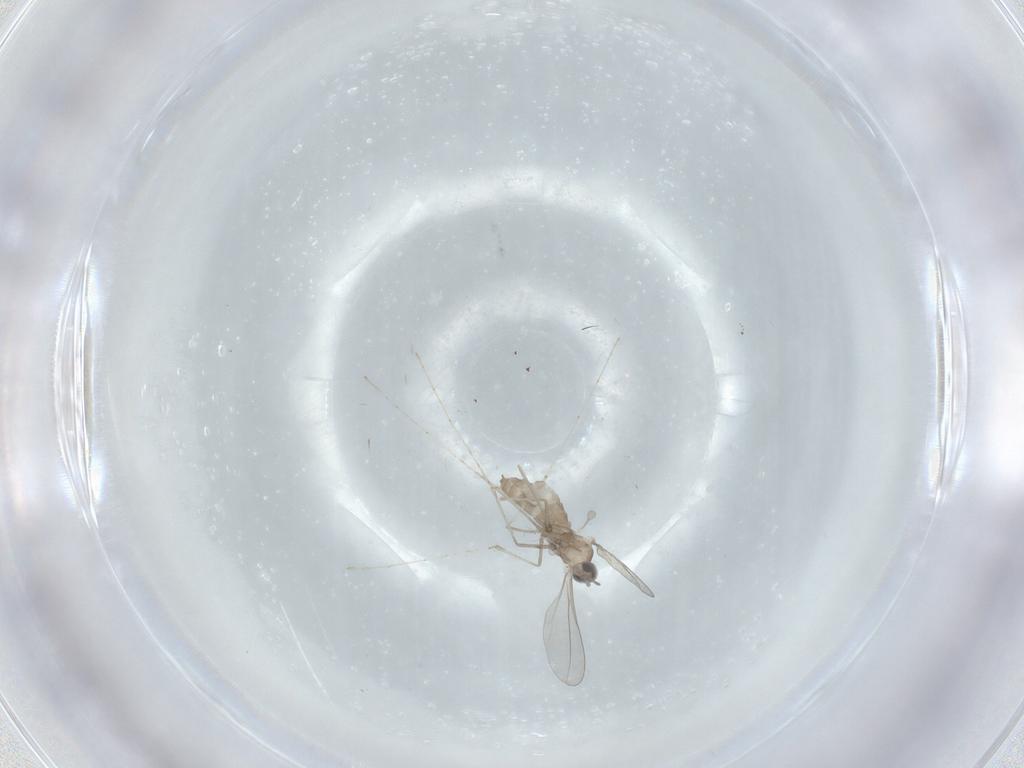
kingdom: Animalia
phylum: Arthropoda
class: Insecta
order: Diptera
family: Cecidomyiidae
